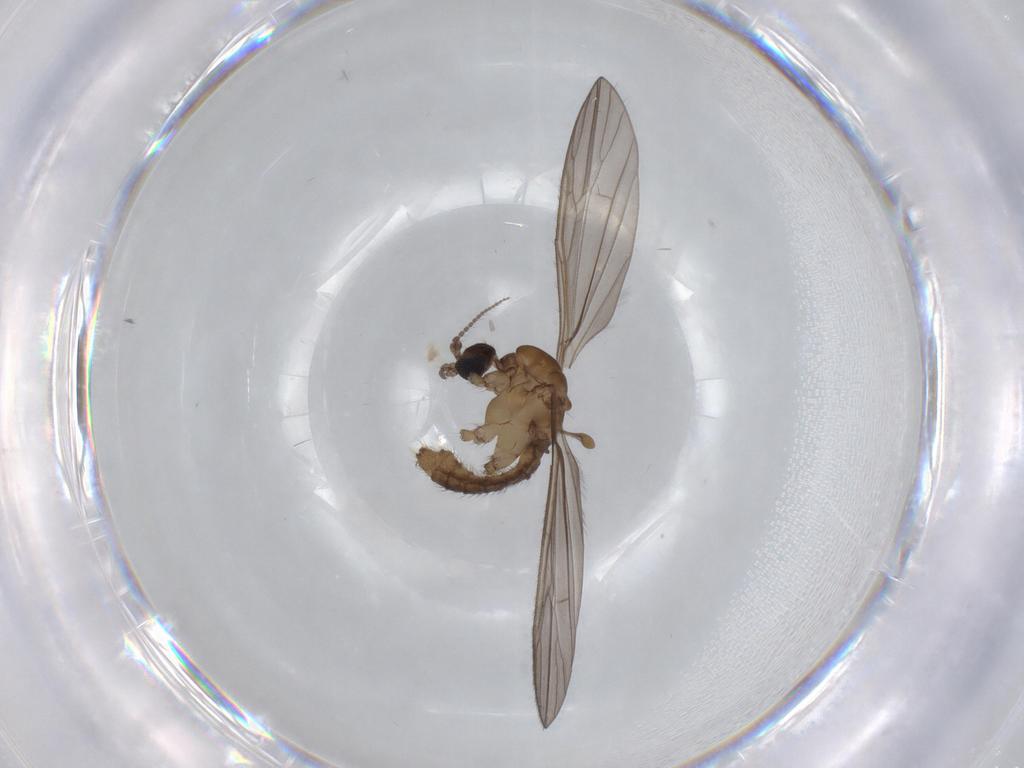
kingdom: Animalia
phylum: Arthropoda
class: Insecta
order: Diptera
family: Limoniidae
